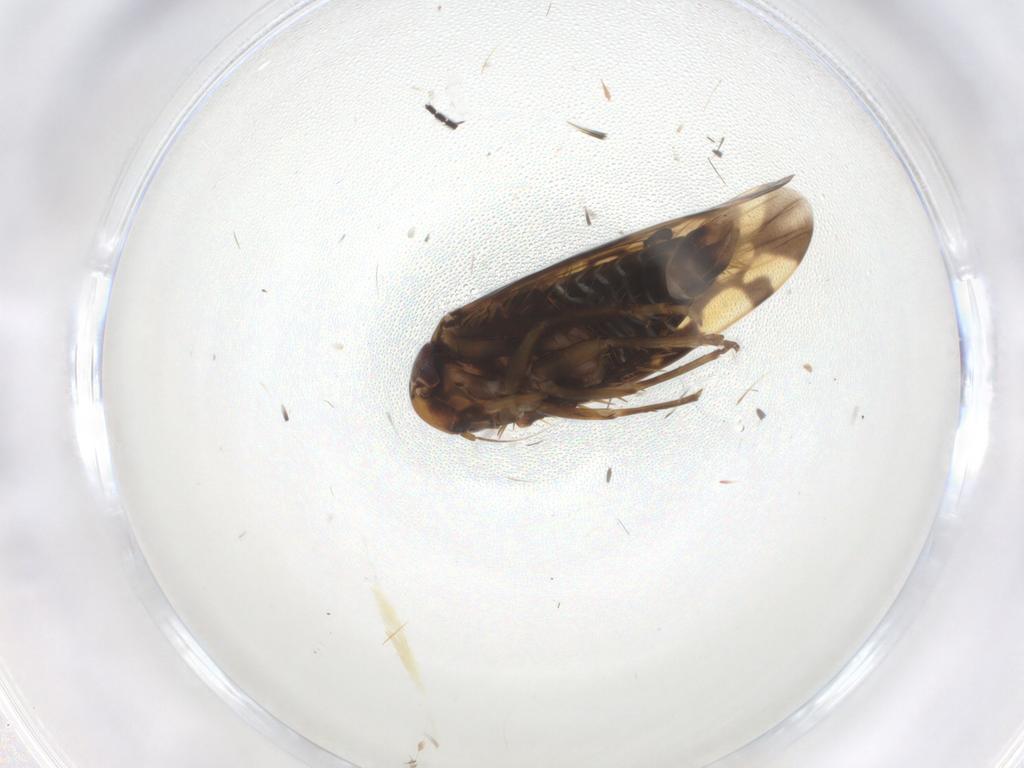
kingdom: Animalia
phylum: Arthropoda
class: Insecta
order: Hemiptera
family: Cicadellidae
